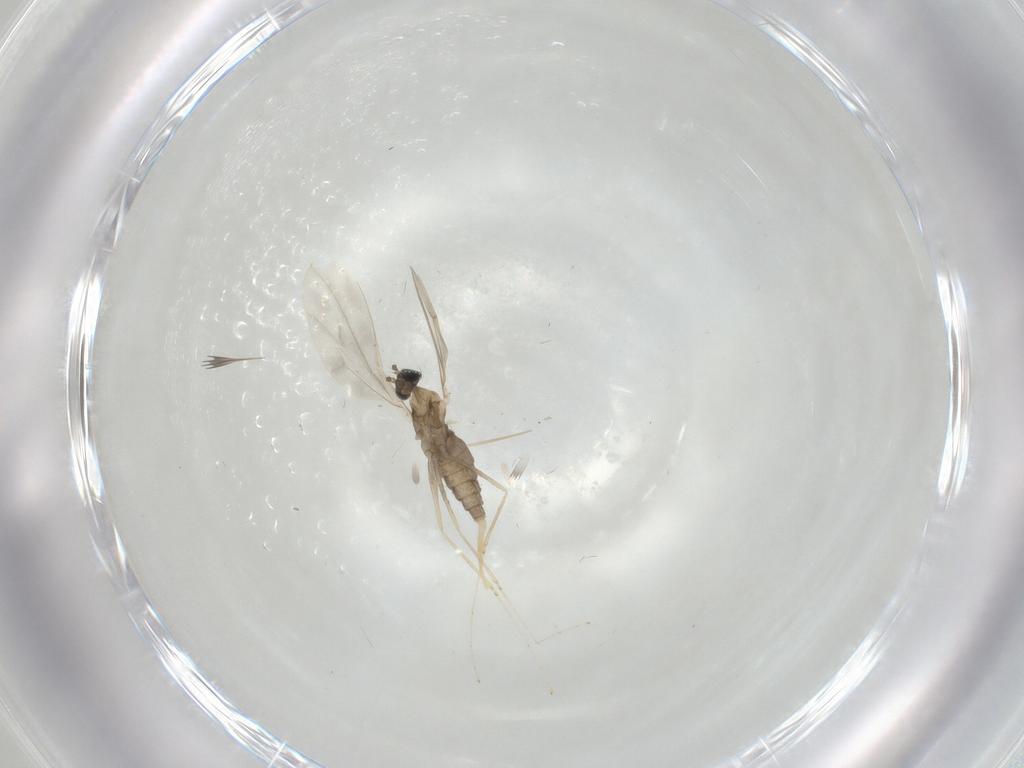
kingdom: Animalia
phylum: Arthropoda
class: Insecta
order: Diptera
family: Cecidomyiidae
